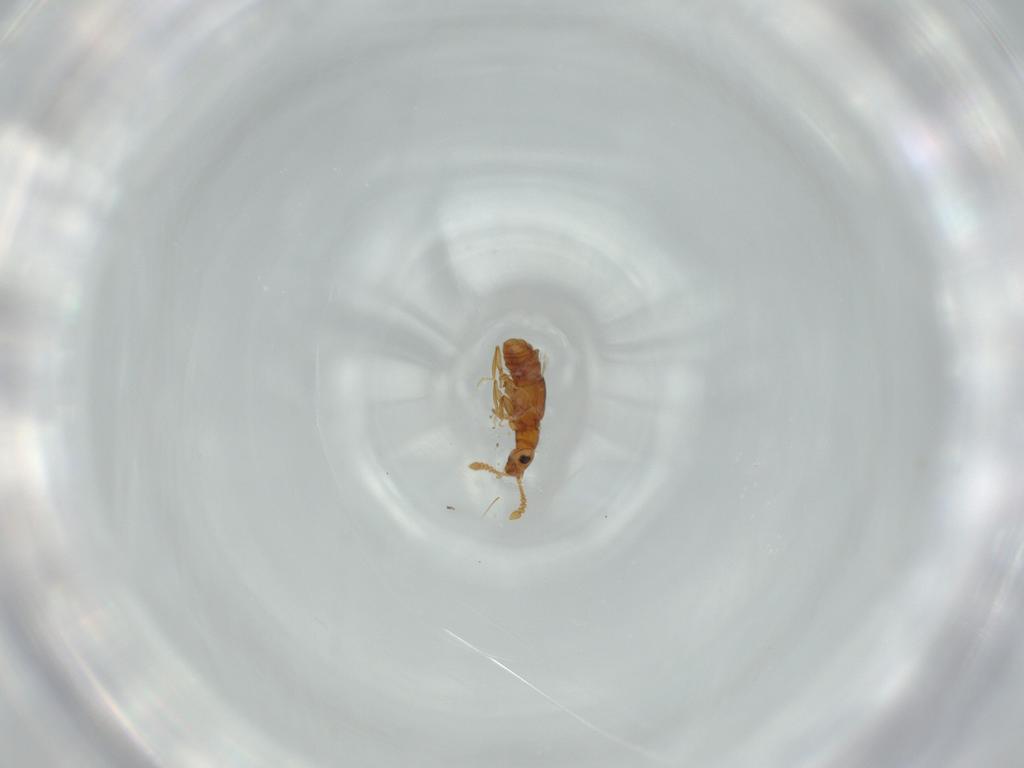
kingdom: Animalia
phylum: Arthropoda
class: Insecta
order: Coleoptera
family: Staphylinidae
